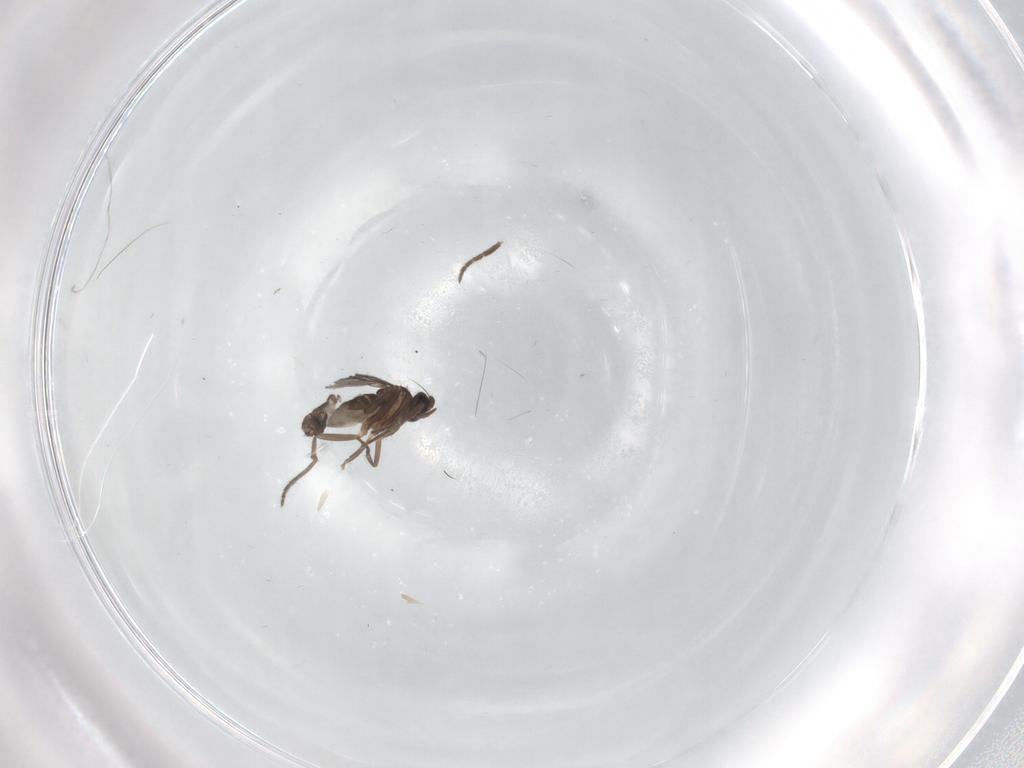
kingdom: Animalia
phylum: Arthropoda
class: Insecta
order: Diptera
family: Phoridae
